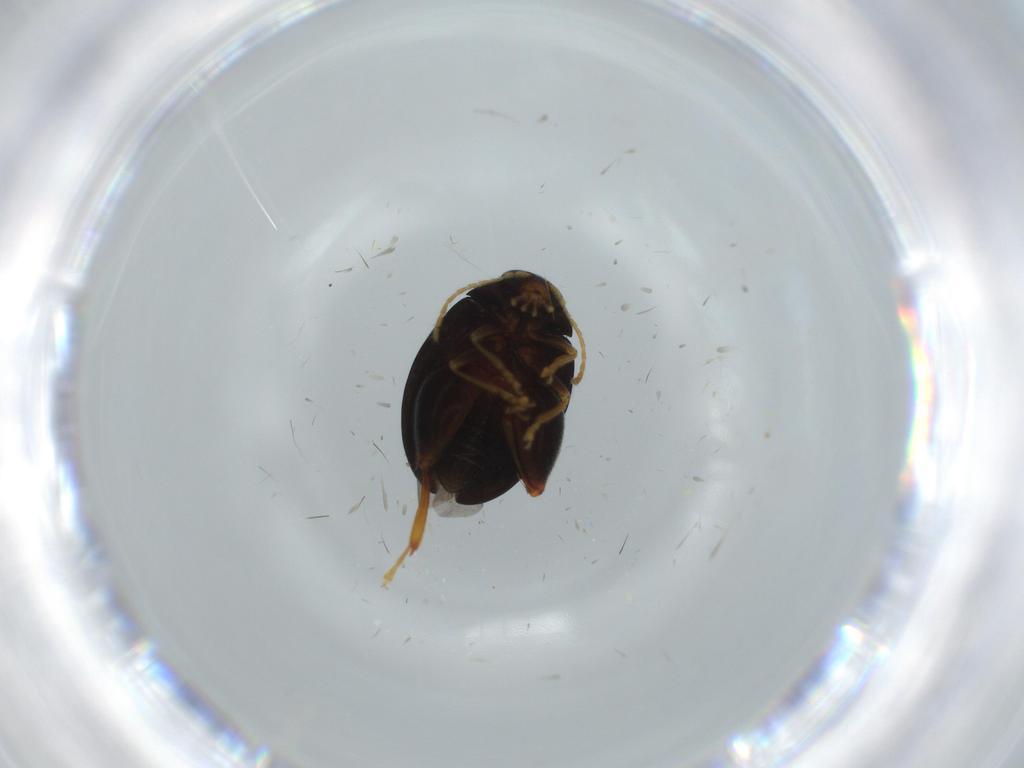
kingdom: Animalia
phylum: Arthropoda
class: Insecta
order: Coleoptera
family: Chrysomelidae
